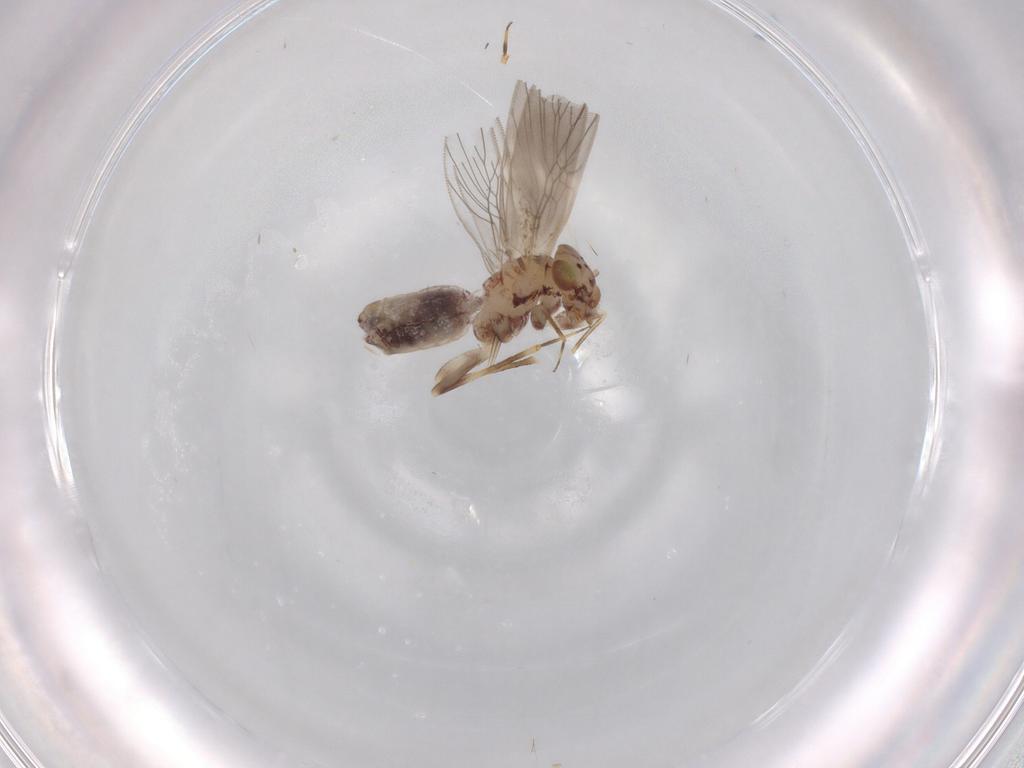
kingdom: Animalia
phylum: Arthropoda
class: Insecta
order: Psocodea
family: Lepidopsocidae
